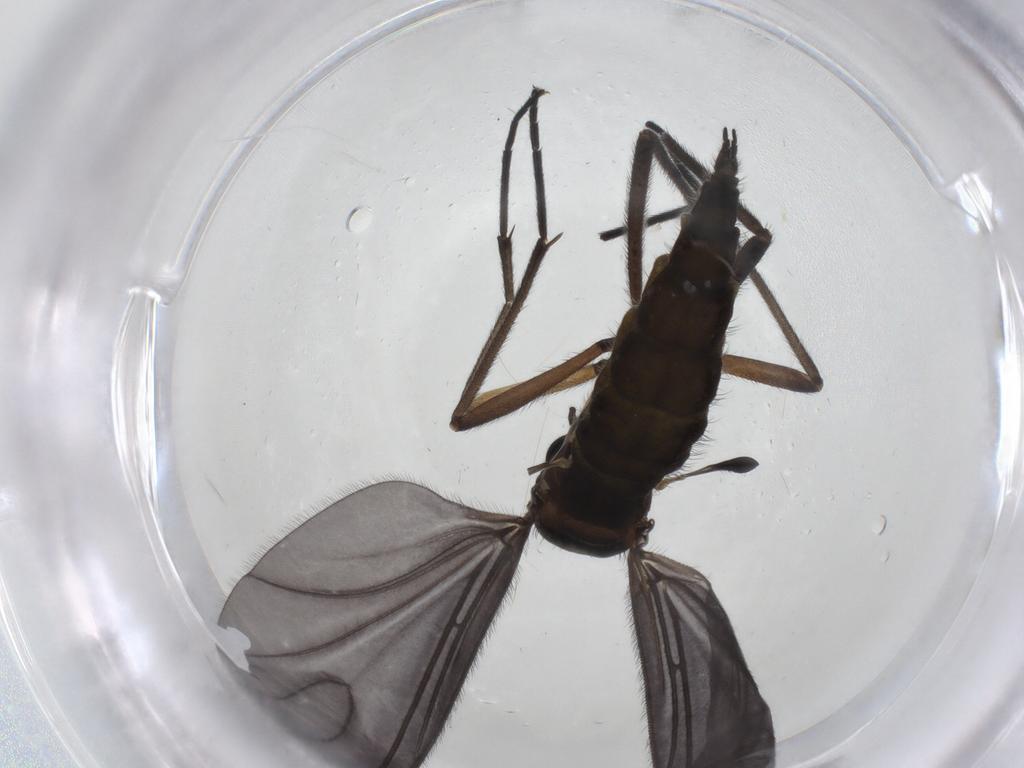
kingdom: Animalia
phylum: Arthropoda
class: Insecta
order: Diptera
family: Sciaridae
